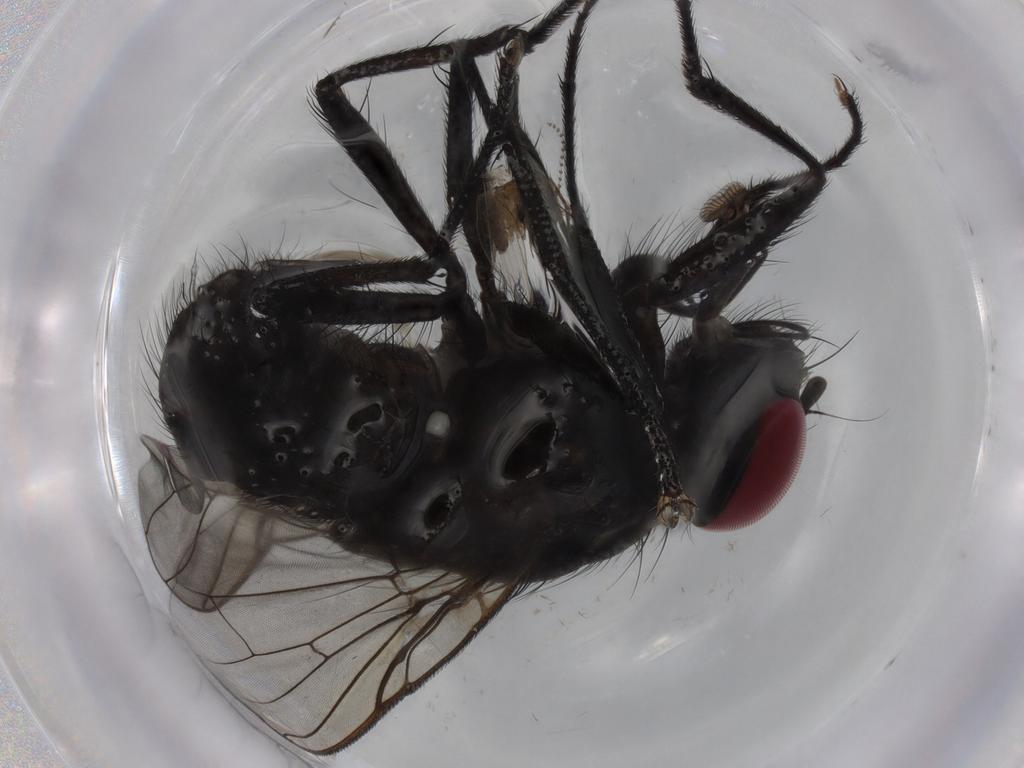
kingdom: Animalia
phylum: Arthropoda
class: Insecta
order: Diptera
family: Muscidae
